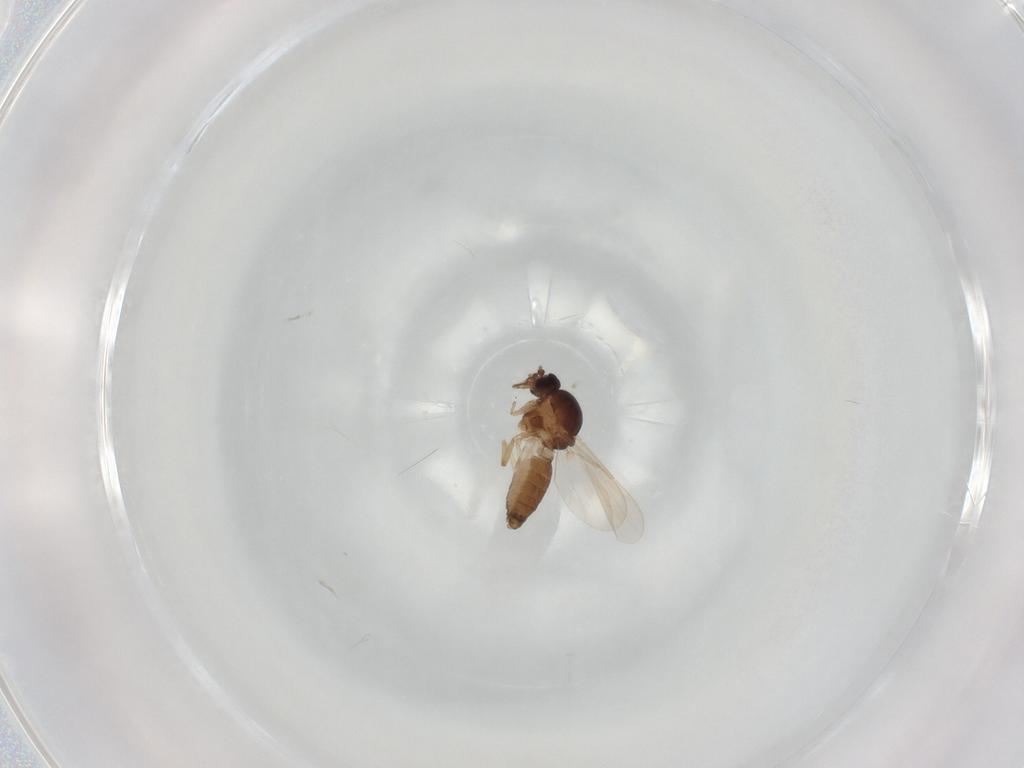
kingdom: Animalia
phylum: Arthropoda
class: Insecta
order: Diptera
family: Ceratopogonidae
